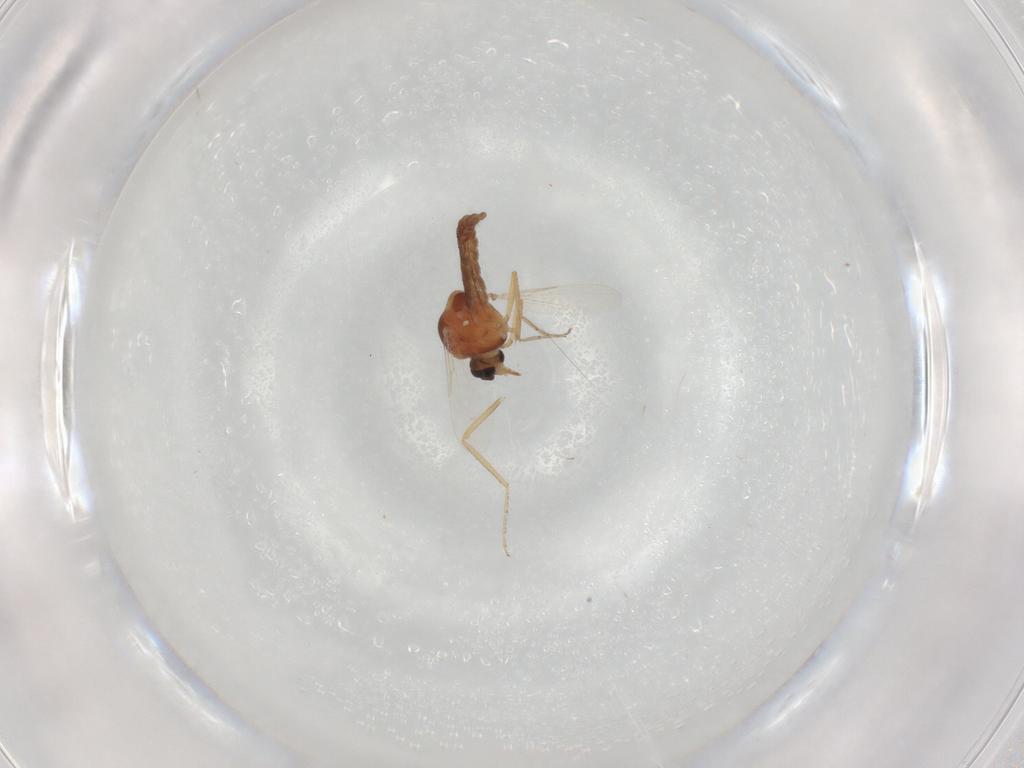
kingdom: Animalia
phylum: Arthropoda
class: Insecta
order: Diptera
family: Ceratopogonidae
